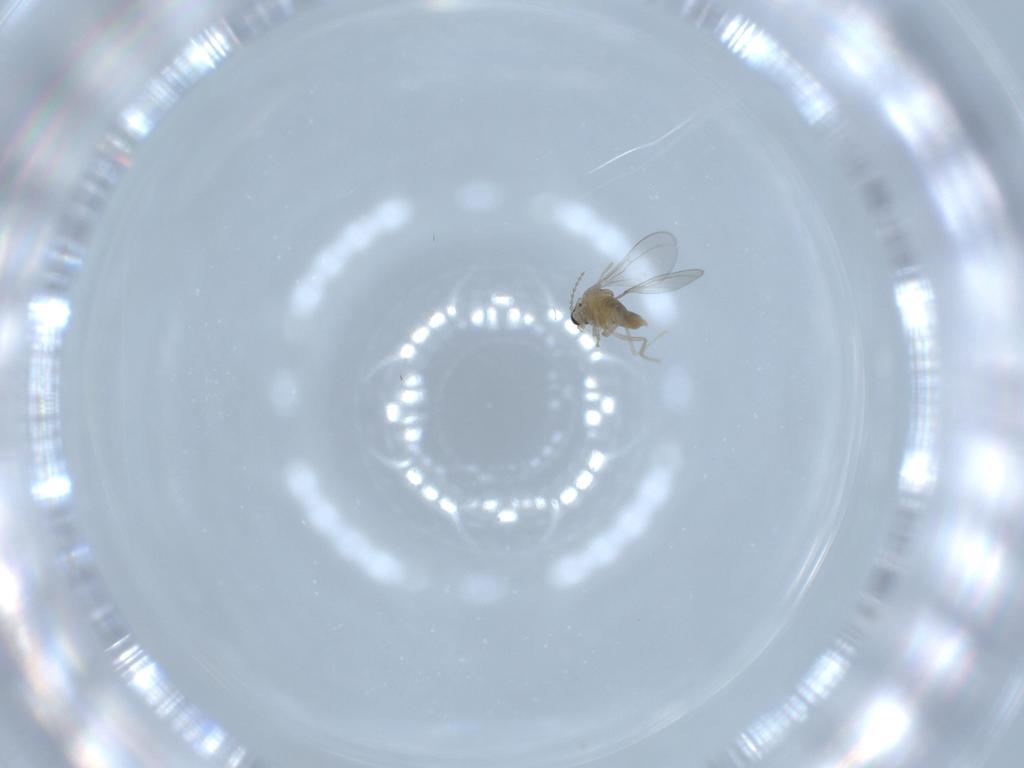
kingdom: Animalia
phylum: Arthropoda
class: Insecta
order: Diptera
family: Cecidomyiidae
